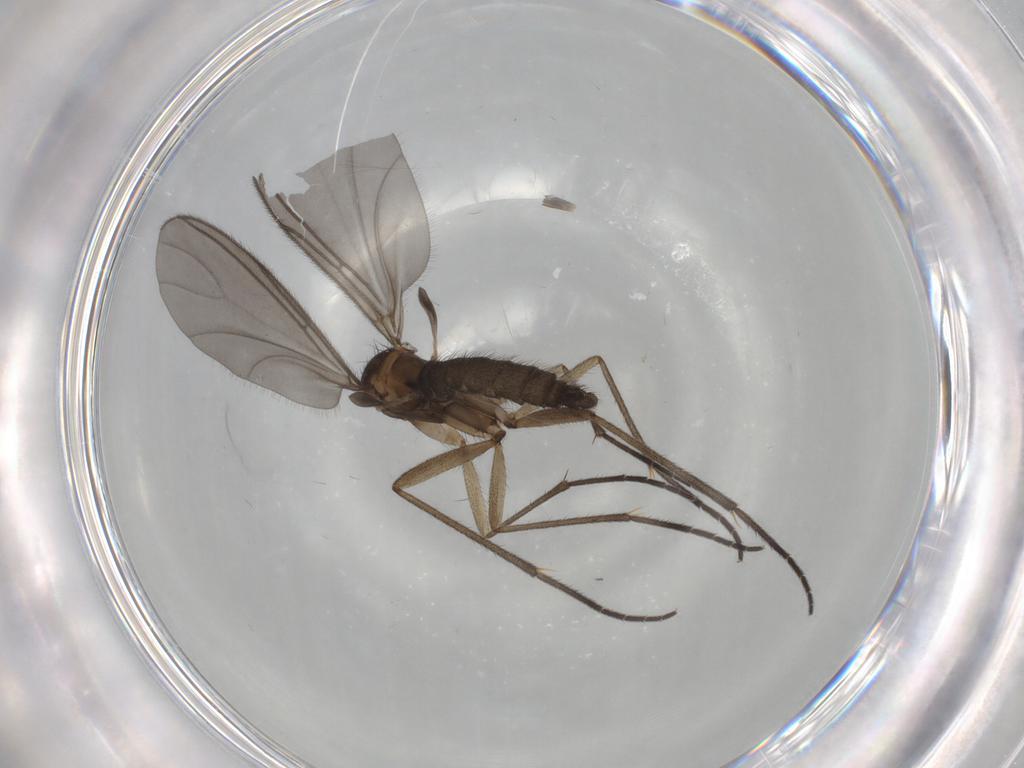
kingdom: Animalia
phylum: Arthropoda
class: Insecta
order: Diptera
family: Sciaridae
